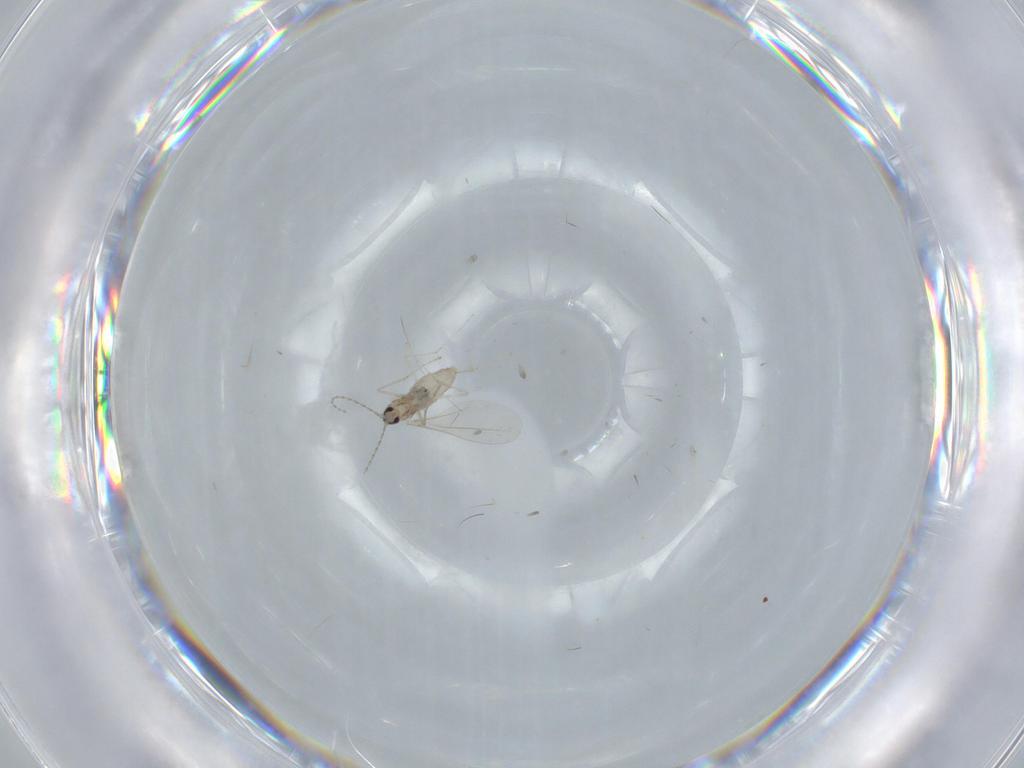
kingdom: Animalia
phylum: Arthropoda
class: Insecta
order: Diptera
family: Cecidomyiidae
